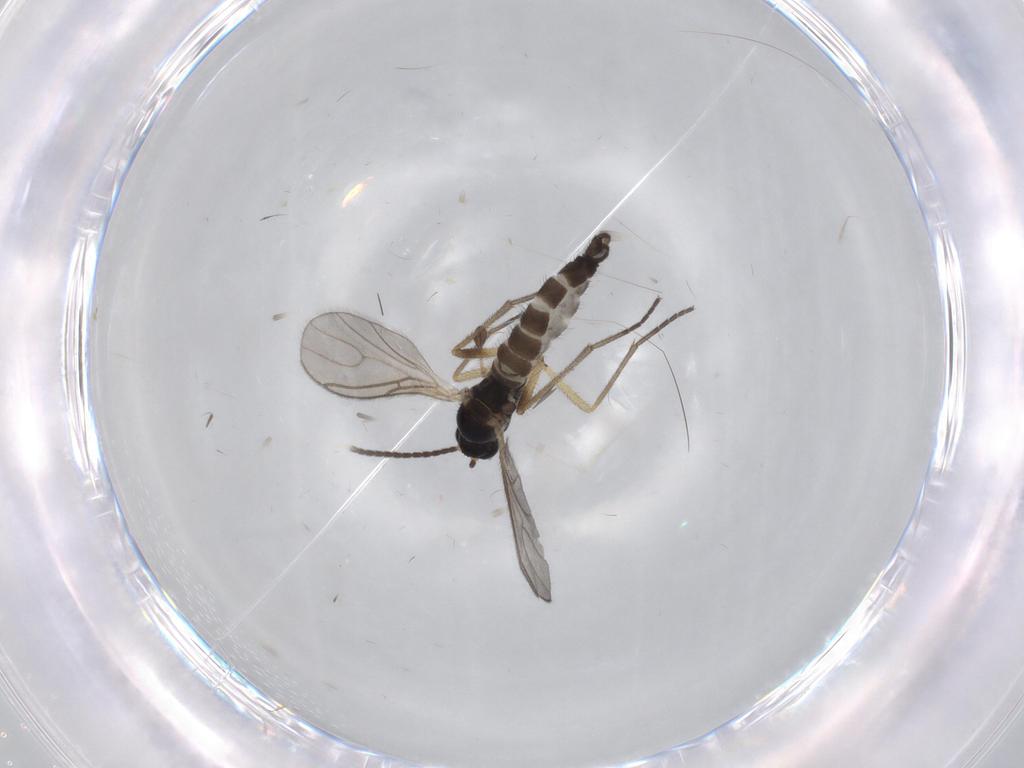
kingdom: Animalia
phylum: Arthropoda
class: Insecta
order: Diptera
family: Sciaridae
